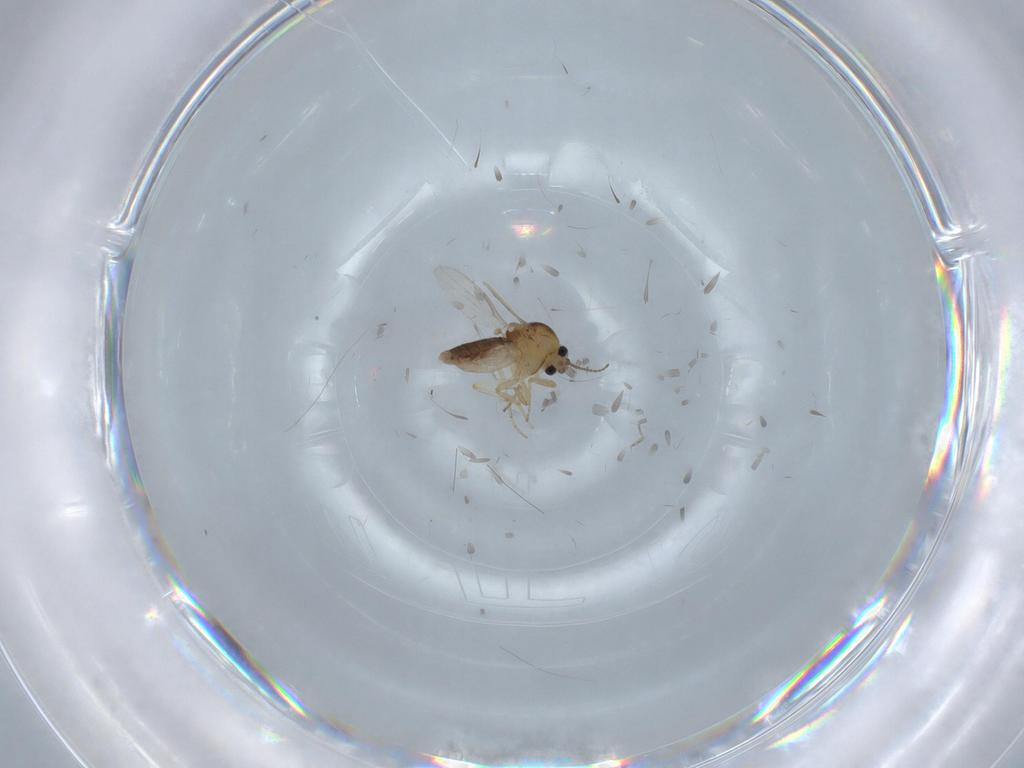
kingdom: Animalia
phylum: Arthropoda
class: Insecta
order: Diptera
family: Ceratopogonidae
